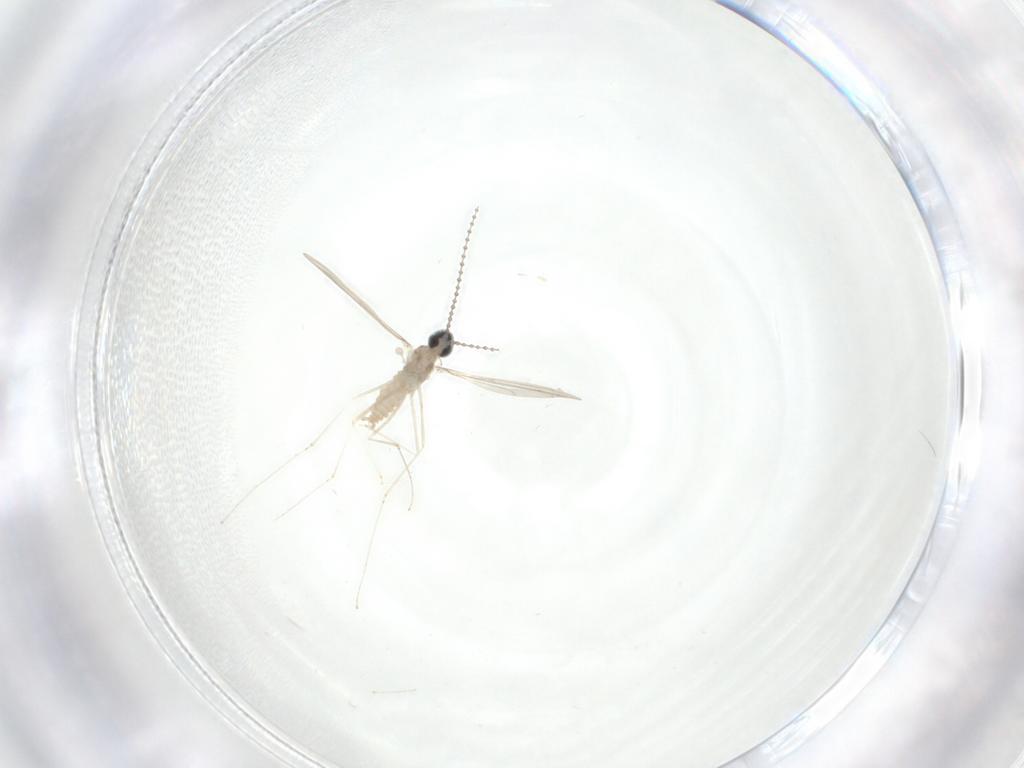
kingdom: Animalia
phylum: Arthropoda
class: Insecta
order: Diptera
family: Cecidomyiidae
